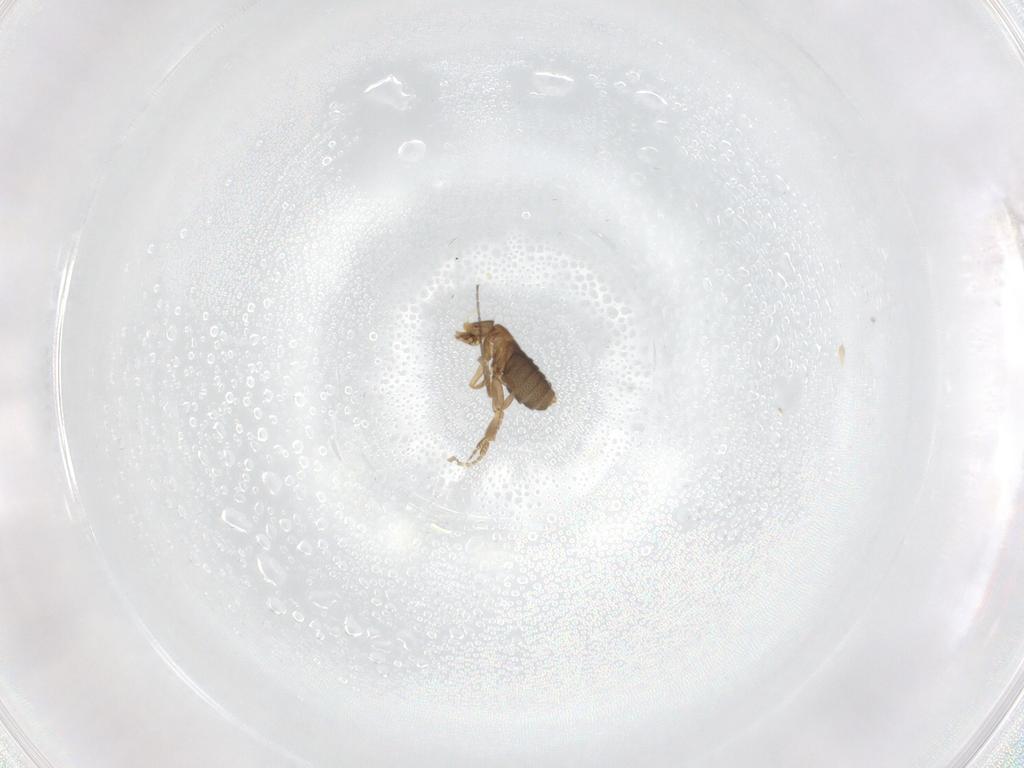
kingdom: Animalia
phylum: Arthropoda
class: Insecta
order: Diptera
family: Chironomidae
